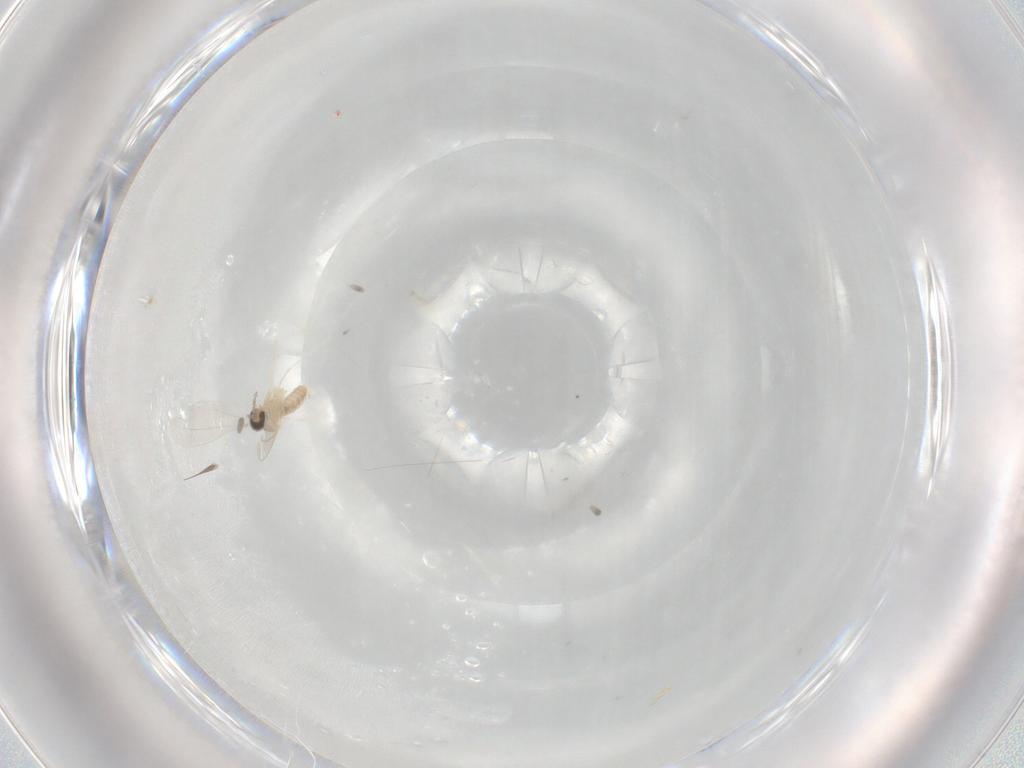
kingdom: Animalia
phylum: Arthropoda
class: Insecta
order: Diptera
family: Cecidomyiidae
